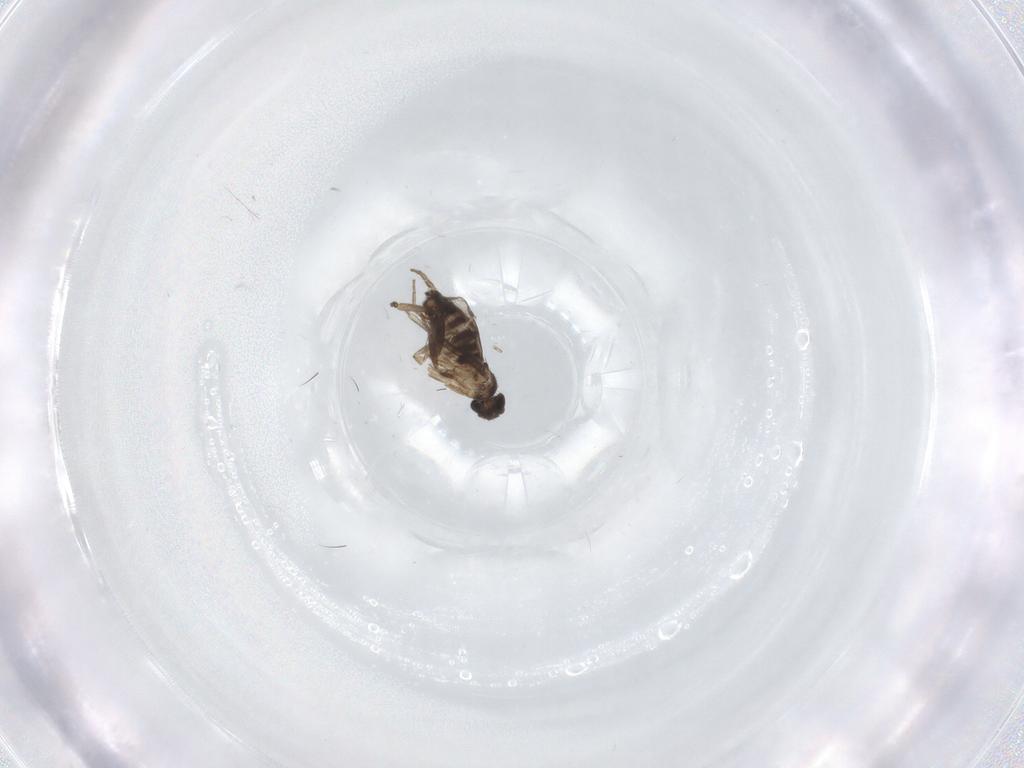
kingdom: Animalia
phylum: Arthropoda
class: Insecta
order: Diptera
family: Cecidomyiidae
